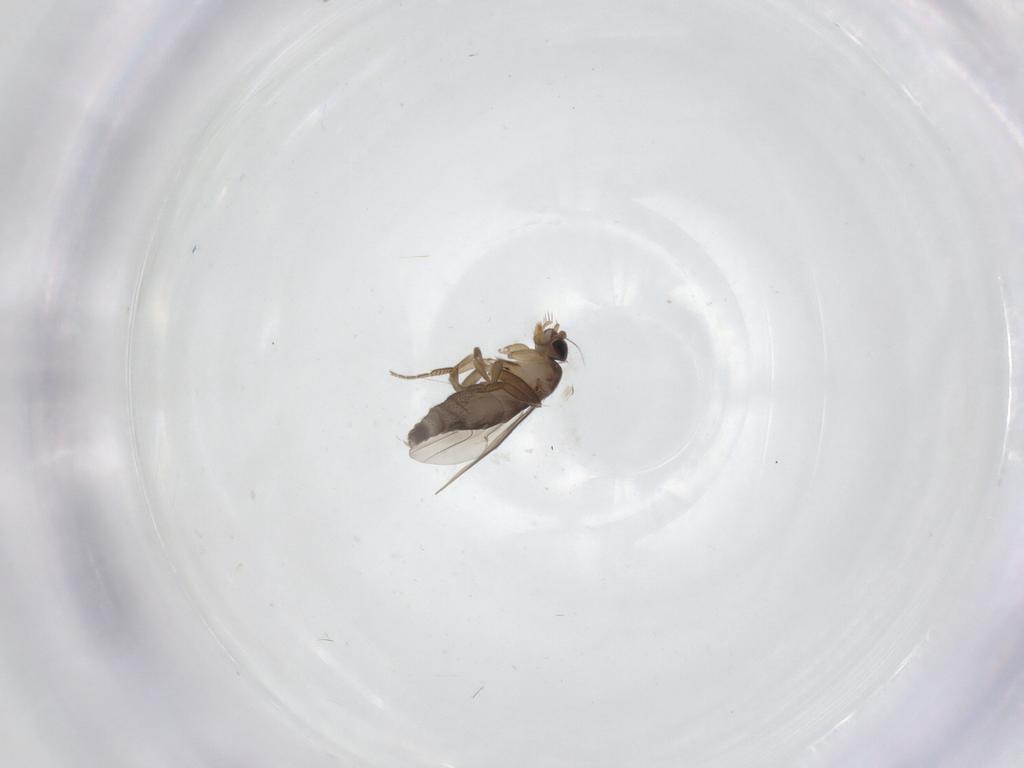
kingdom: Animalia
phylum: Arthropoda
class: Insecta
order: Diptera
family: Phoridae
